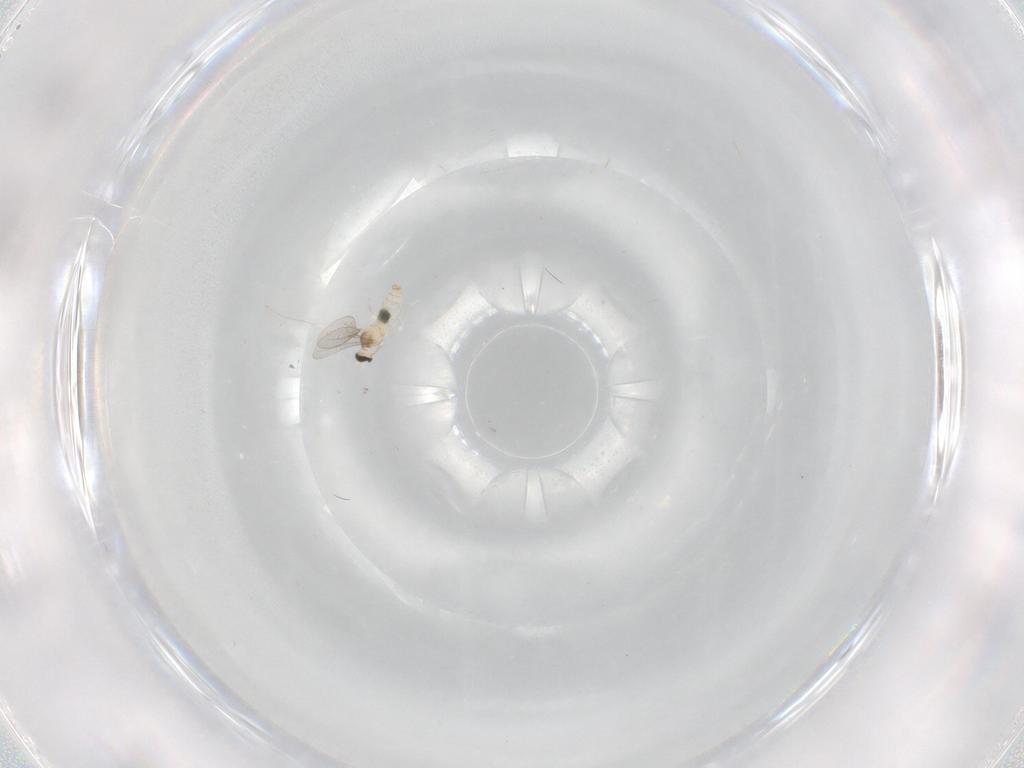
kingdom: Animalia
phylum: Arthropoda
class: Insecta
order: Diptera
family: Cecidomyiidae
